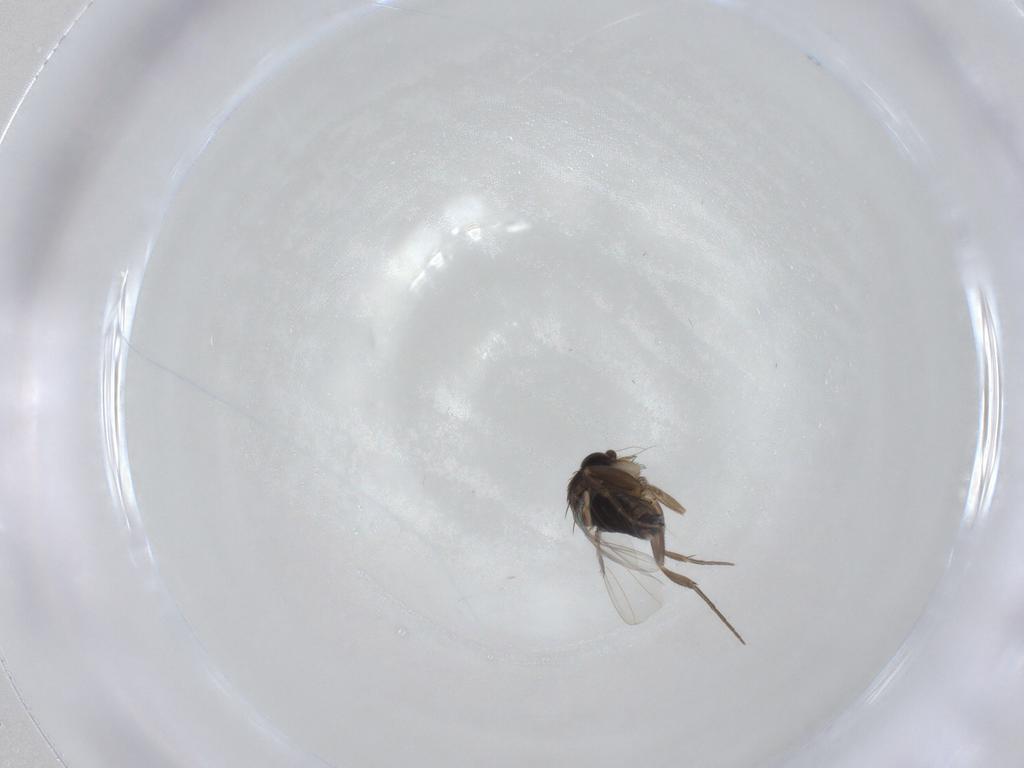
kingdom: Animalia
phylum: Arthropoda
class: Insecta
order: Diptera
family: Phoridae
